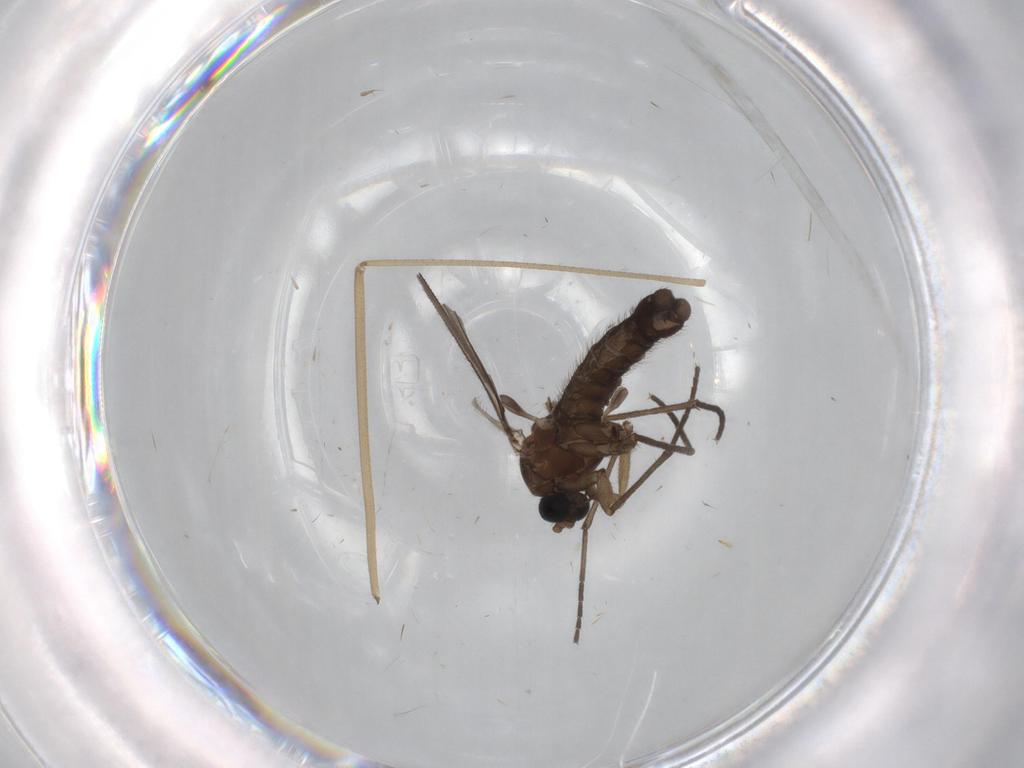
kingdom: Animalia
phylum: Arthropoda
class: Insecta
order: Diptera
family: Sciaridae
